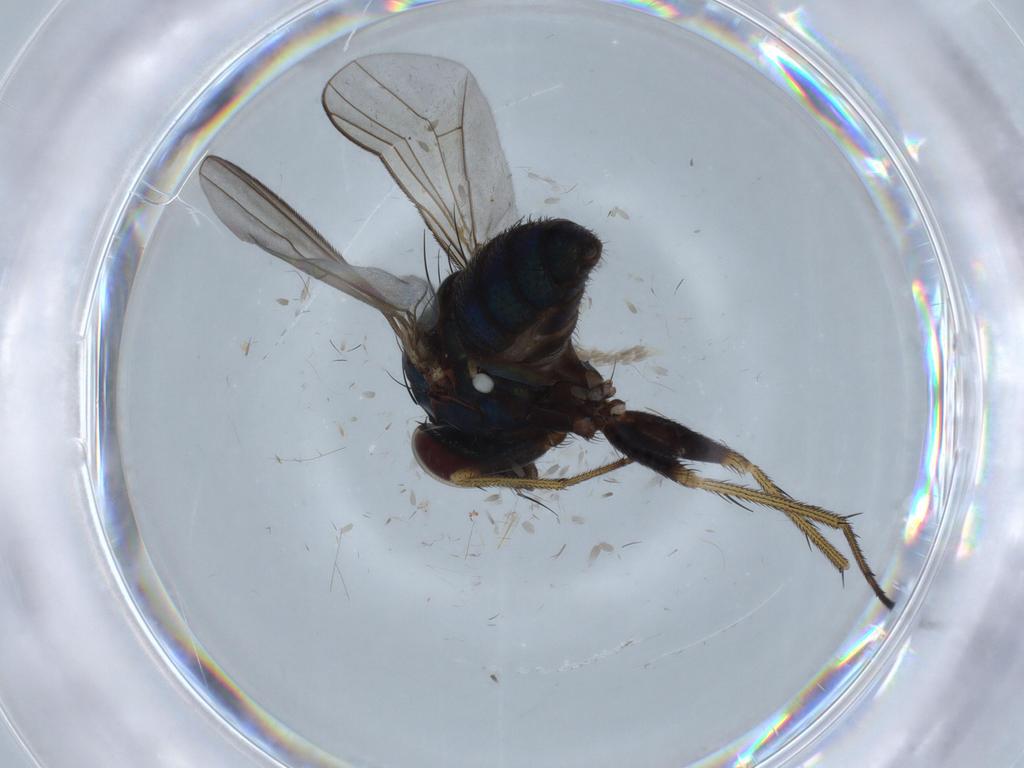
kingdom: Animalia
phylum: Arthropoda
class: Insecta
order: Diptera
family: Dolichopodidae
